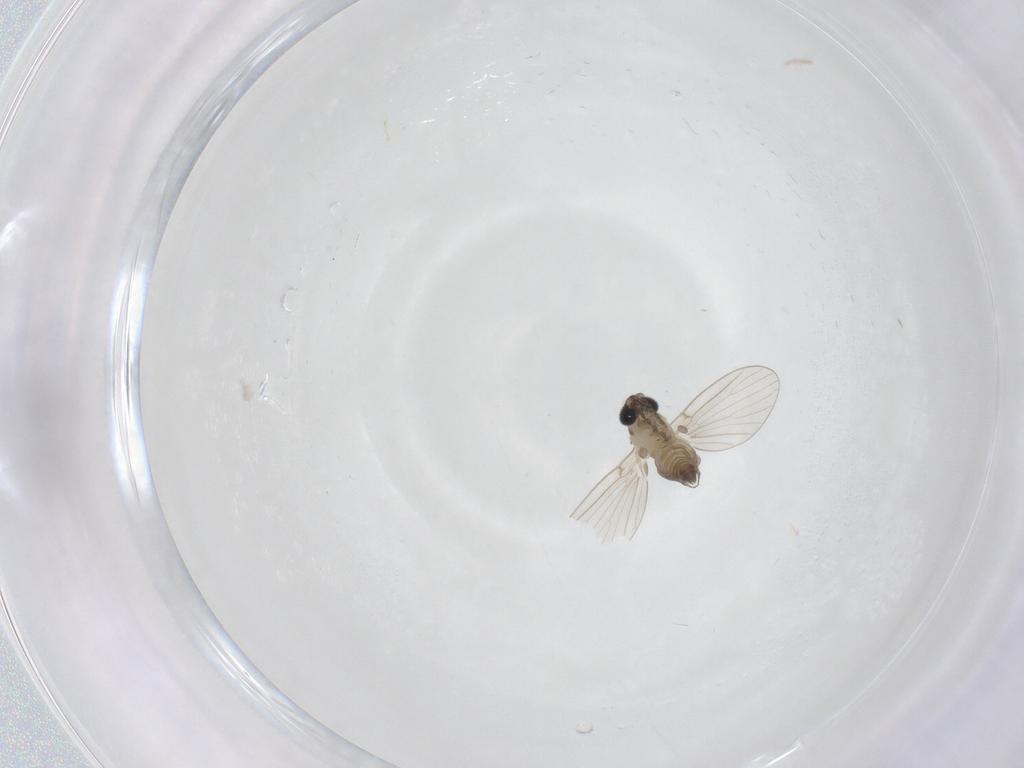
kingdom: Animalia
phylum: Arthropoda
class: Insecta
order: Diptera
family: Psychodidae
